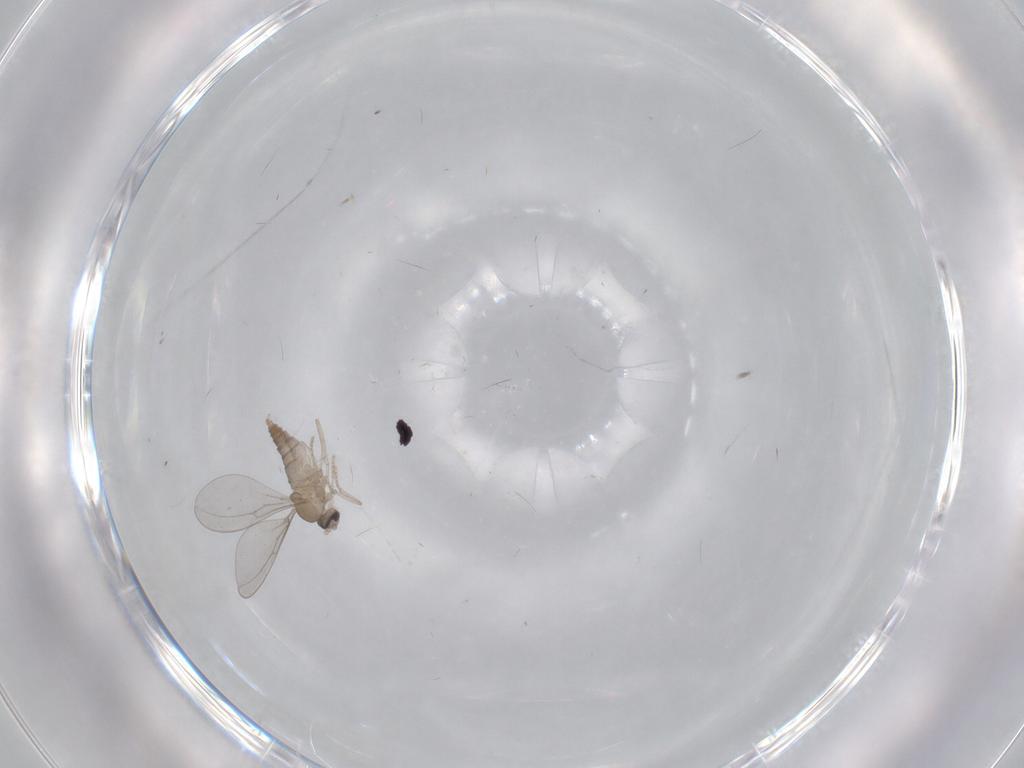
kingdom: Animalia
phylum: Arthropoda
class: Insecta
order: Diptera
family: Cecidomyiidae
